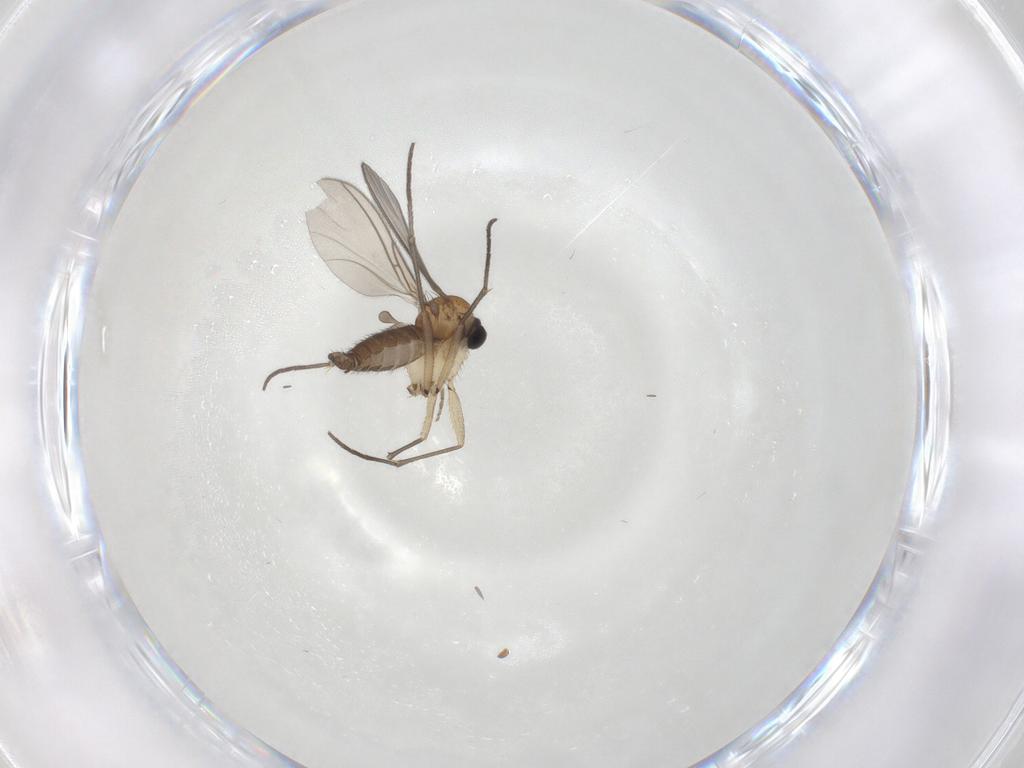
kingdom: Animalia
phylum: Arthropoda
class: Insecta
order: Diptera
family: Sciaridae
